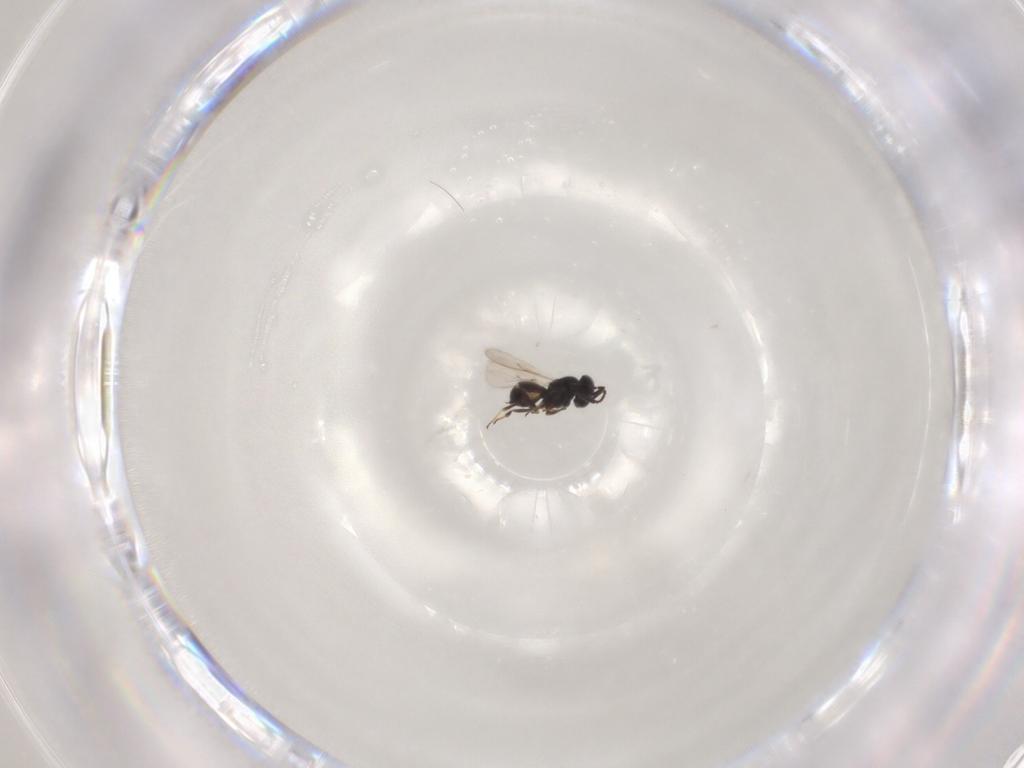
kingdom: Animalia
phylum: Arthropoda
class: Insecta
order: Hymenoptera
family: Scelionidae
